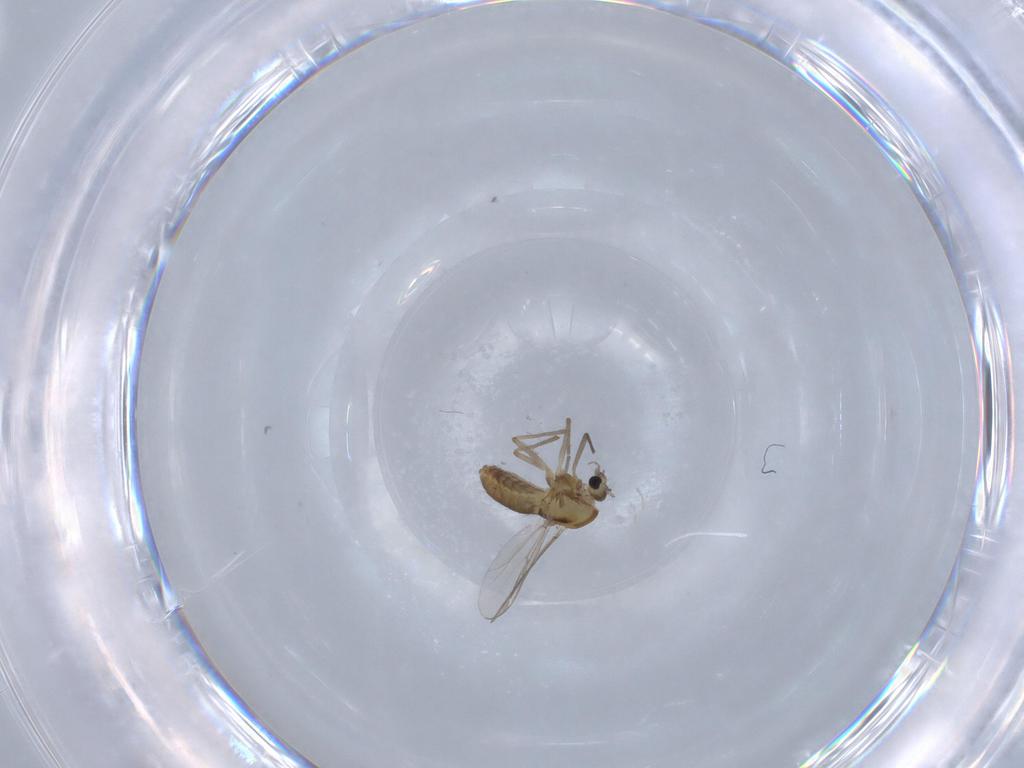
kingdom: Animalia
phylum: Arthropoda
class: Insecta
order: Diptera
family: Chironomidae
